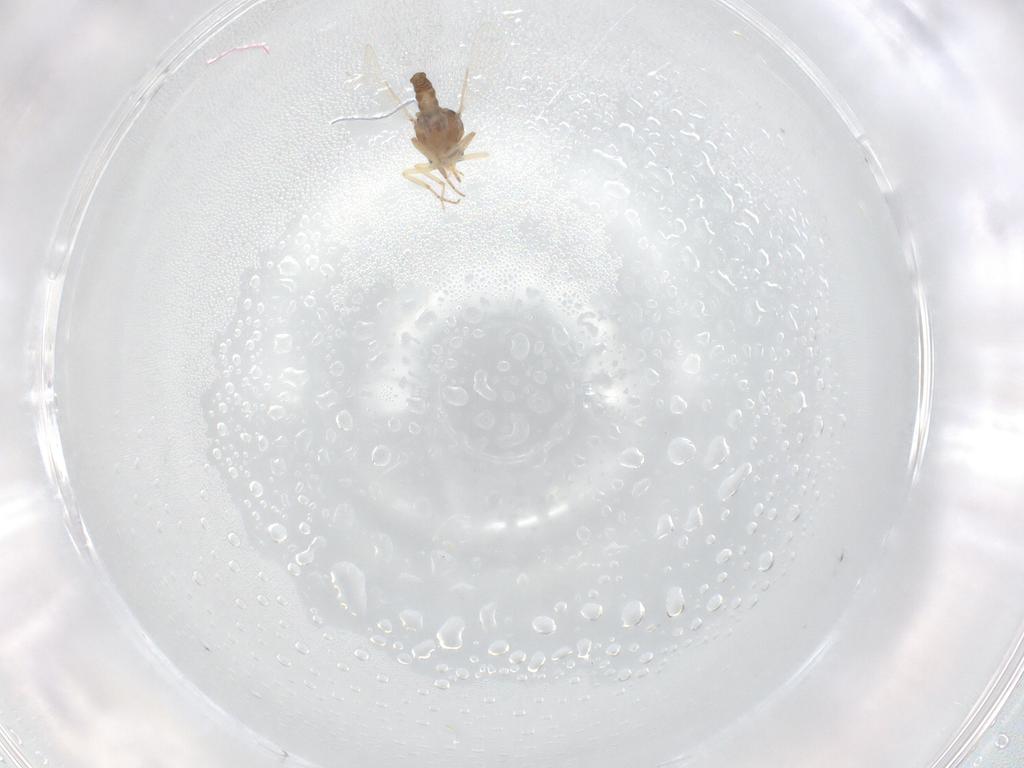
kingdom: Animalia
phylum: Arthropoda
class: Insecta
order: Diptera
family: Ceratopogonidae
